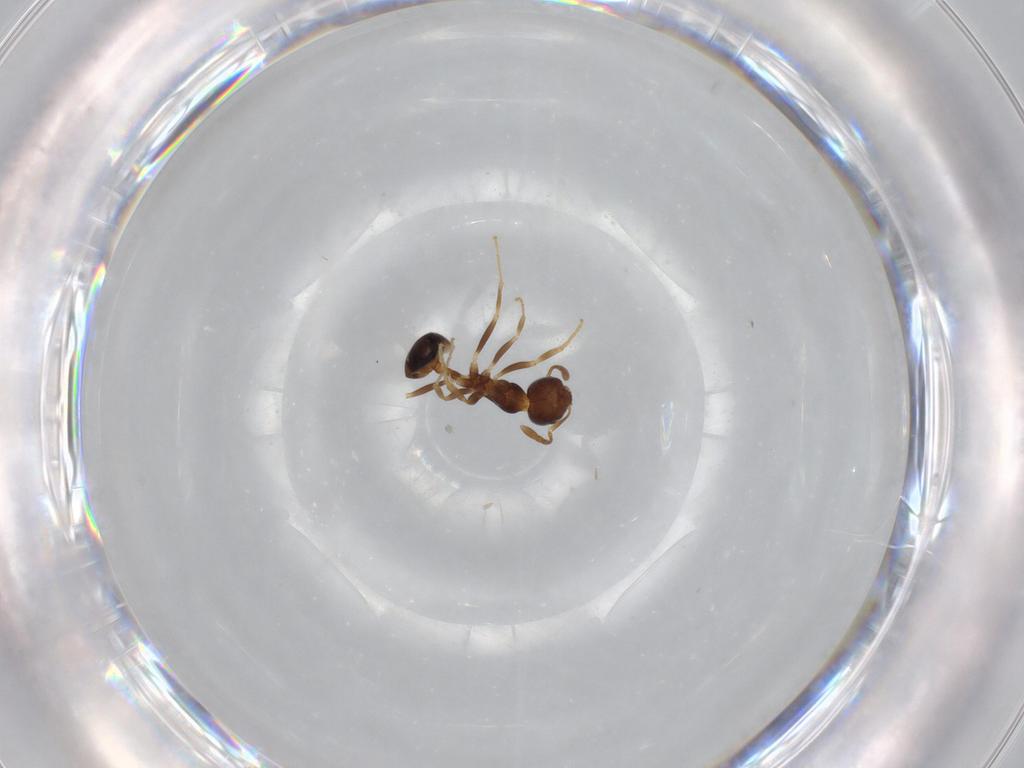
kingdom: Animalia
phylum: Arthropoda
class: Insecta
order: Hymenoptera
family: Formicidae
